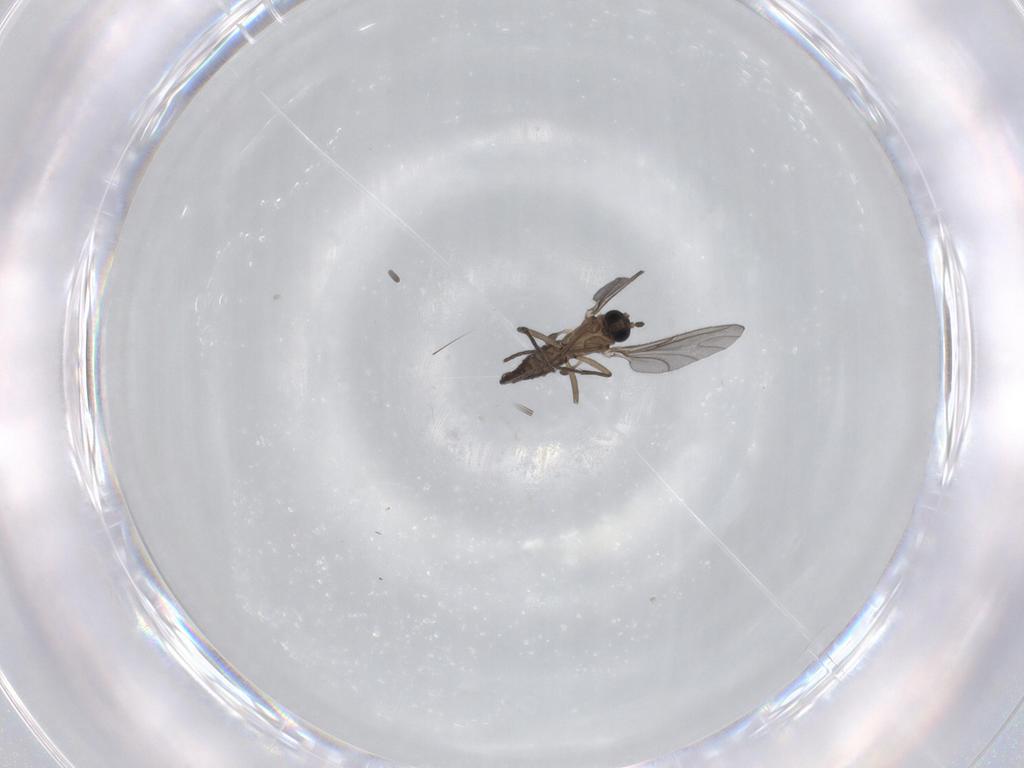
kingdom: Animalia
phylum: Arthropoda
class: Insecta
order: Diptera
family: Sciaridae
